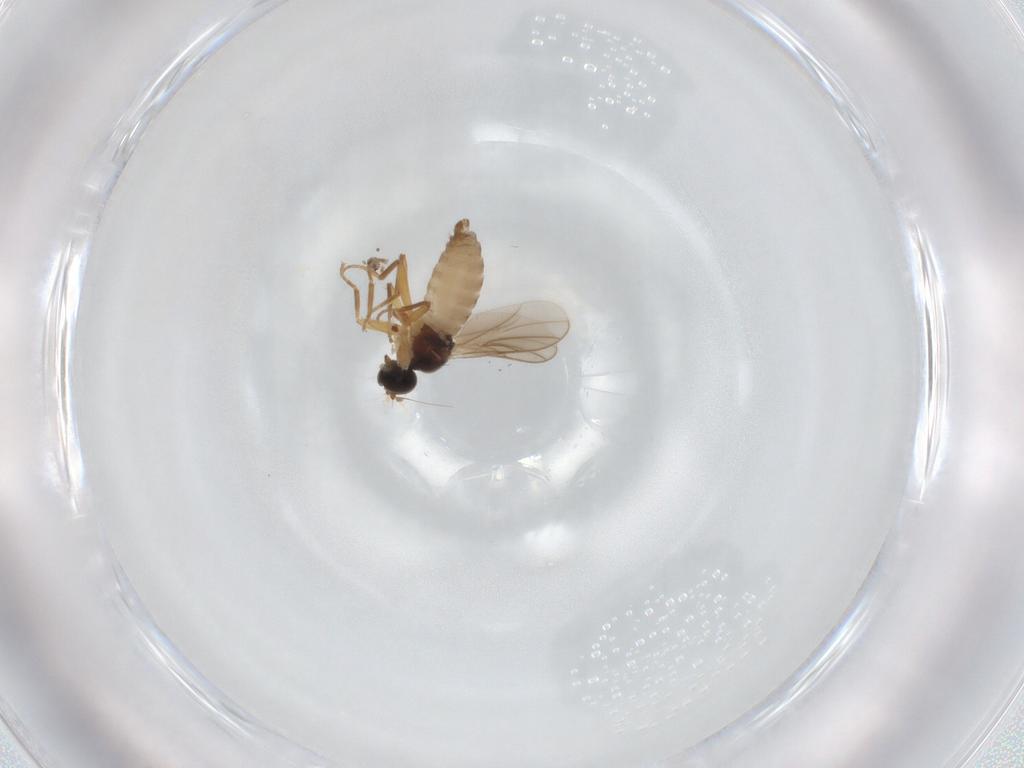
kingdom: Animalia
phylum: Arthropoda
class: Insecta
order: Diptera
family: Hybotidae
